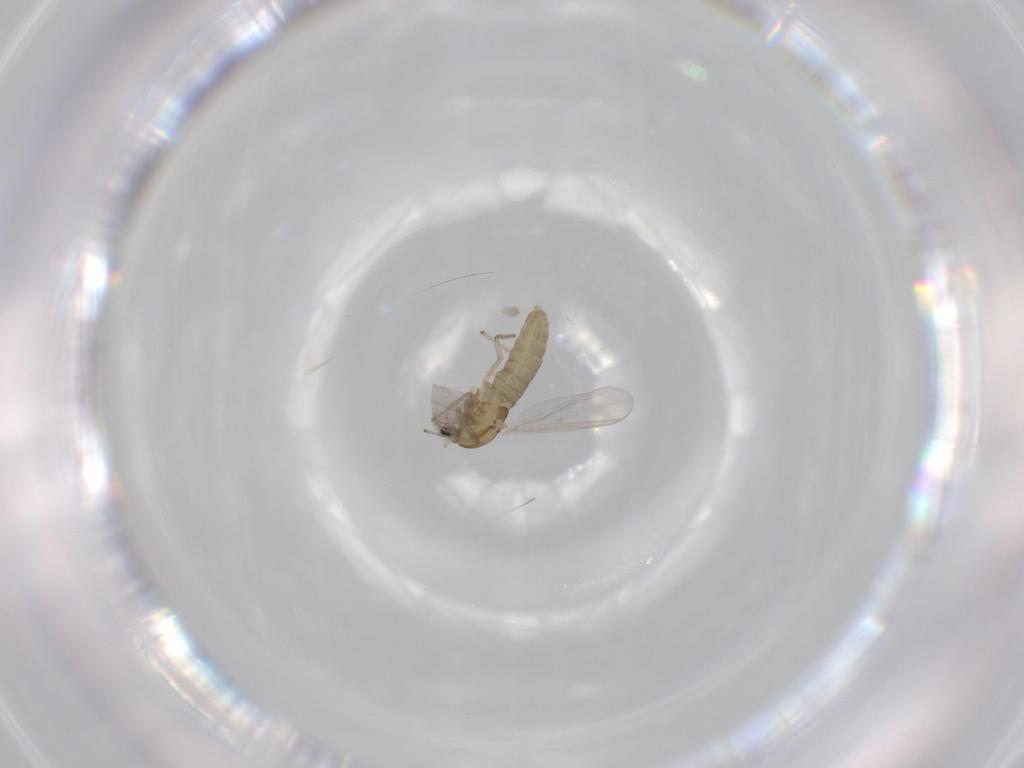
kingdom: Animalia
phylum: Arthropoda
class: Insecta
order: Diptera
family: Chironomidae
